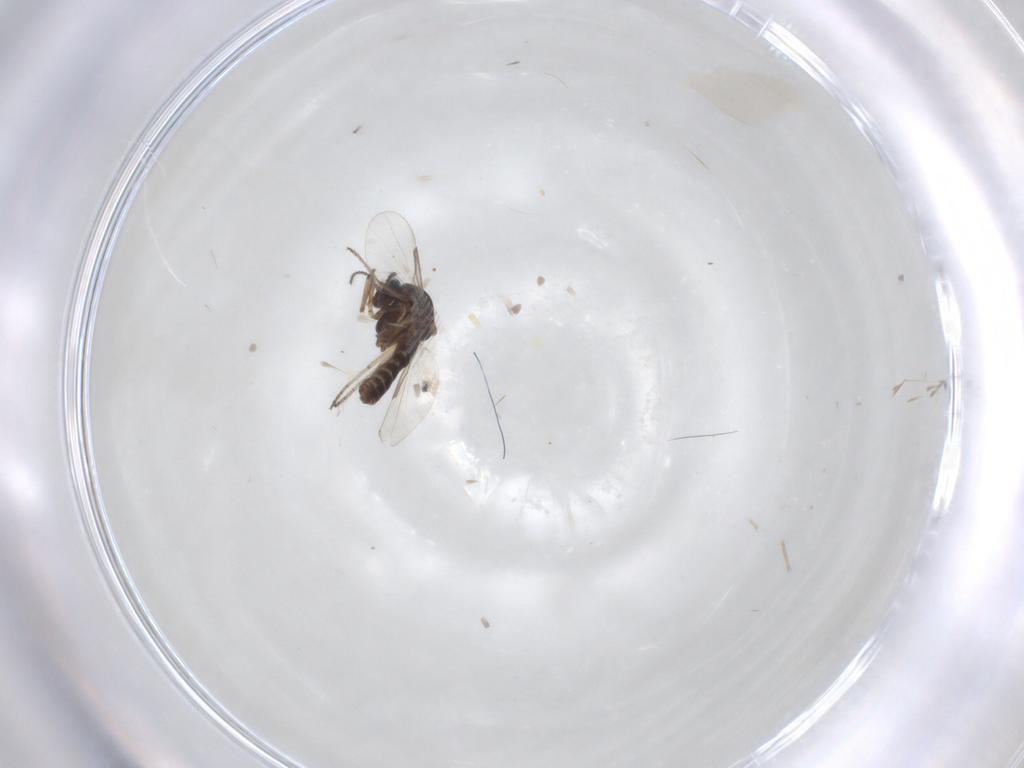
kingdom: Animalia
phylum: Arthropoda
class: Insecta
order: Diptera
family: Ceratopogonidae
